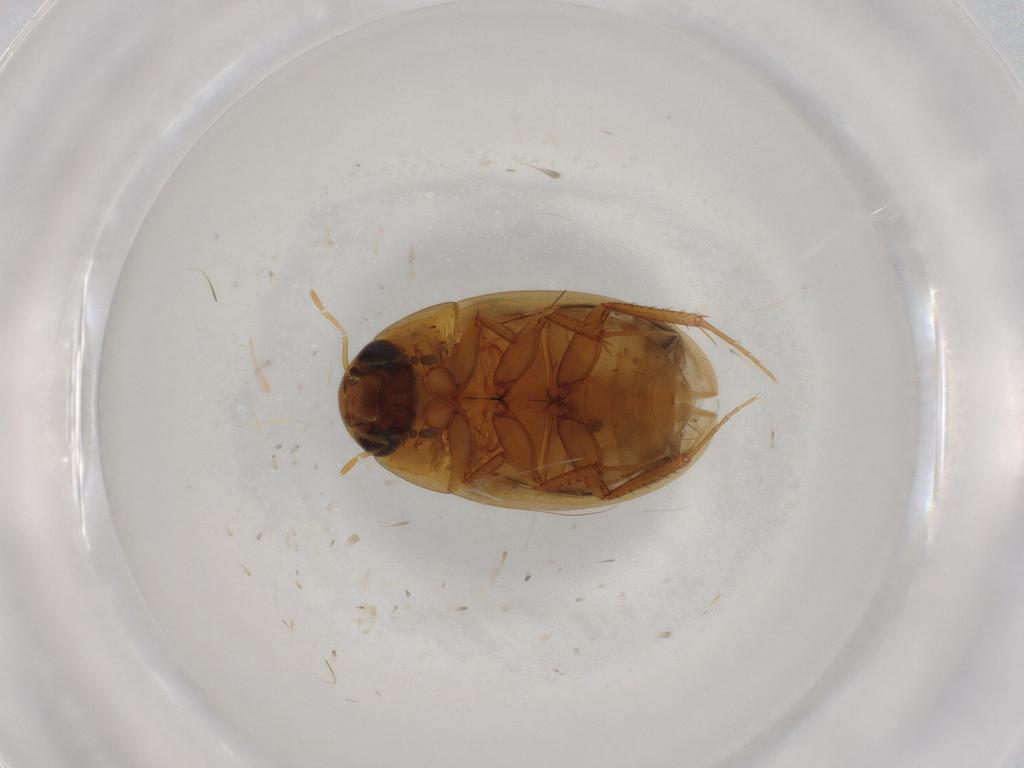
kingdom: Animalia
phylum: Arthropoda
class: Insecta
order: Coleoptera
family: Hydrophilidae
